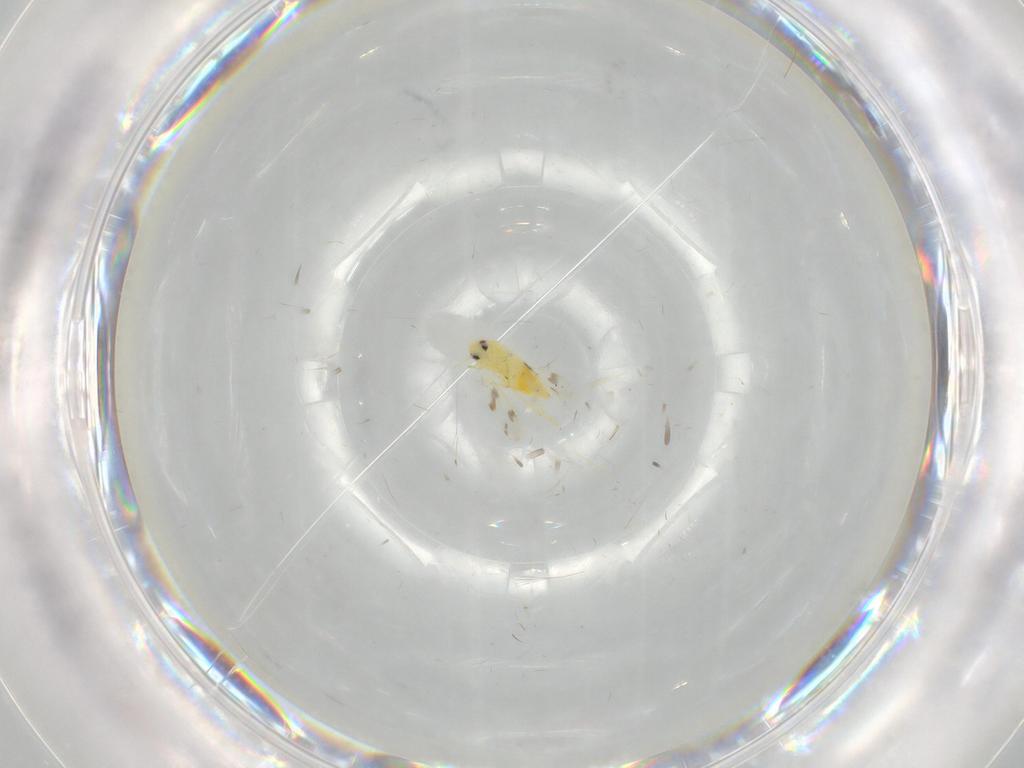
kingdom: Animalia
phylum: Arthropoda
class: Insecta
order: Hemiptera
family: Aleyrodidae
